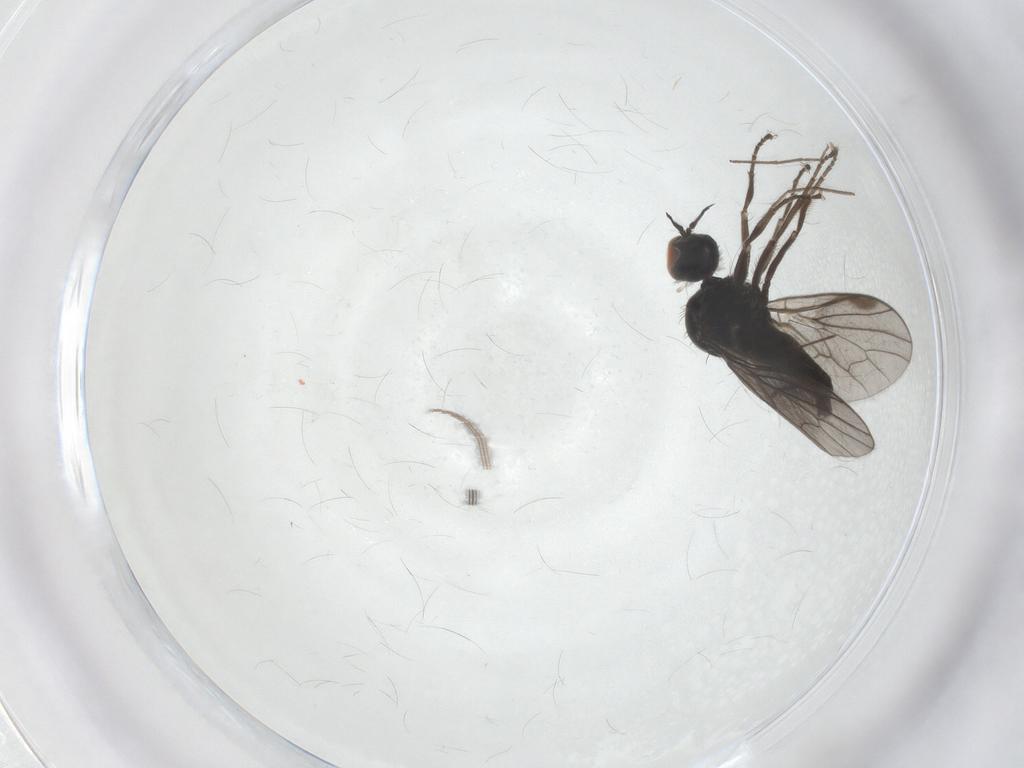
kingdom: Animalia
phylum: Arthropoda
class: Insecta
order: Diptera
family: Hybotidae
